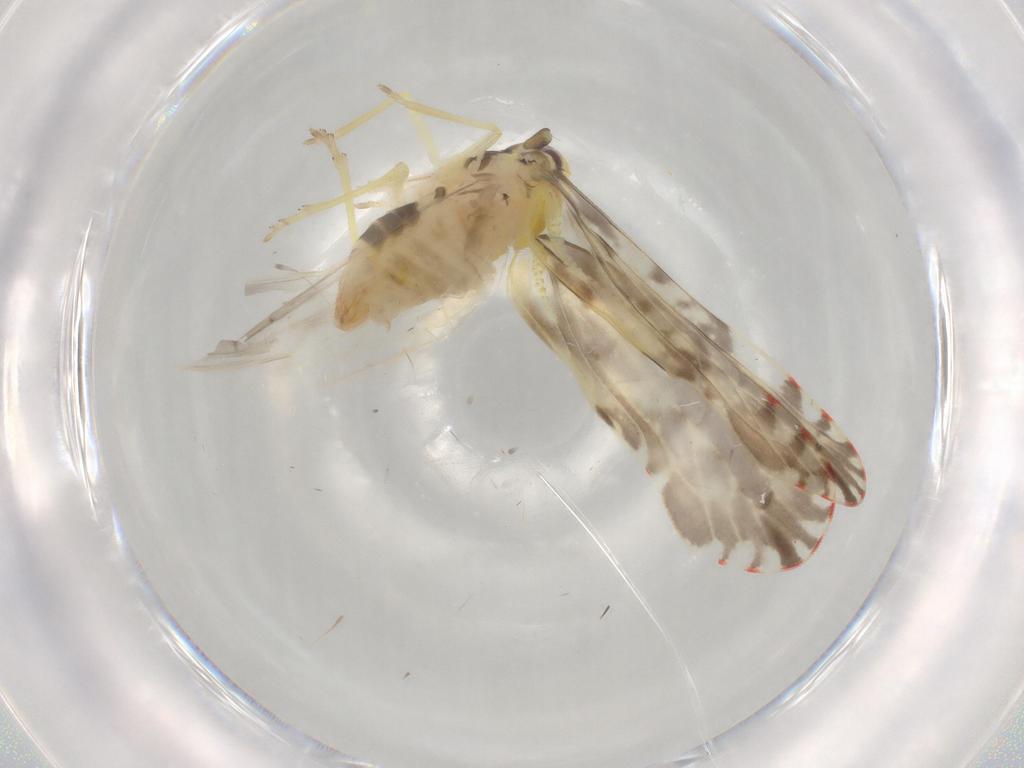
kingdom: Animalia
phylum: Arthropoda
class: Insecta
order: Hemiptera
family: Derbidae
